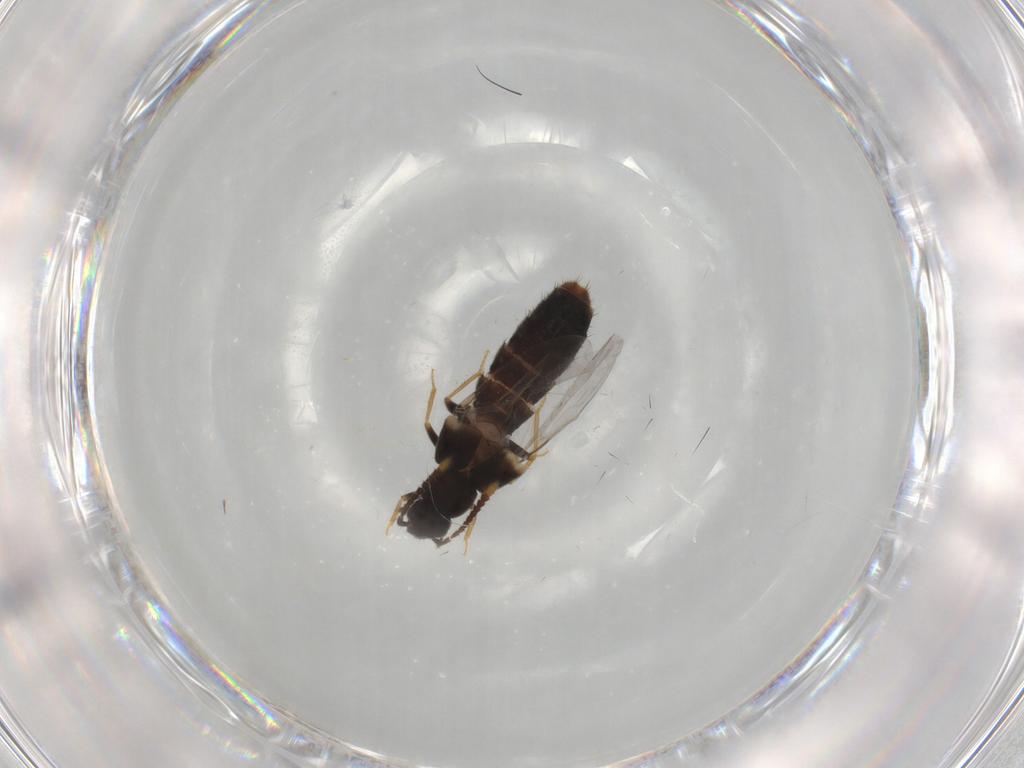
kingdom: Animalia
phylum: Arthropoda
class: Insecta
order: Coleoptera
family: Staphylinidae
